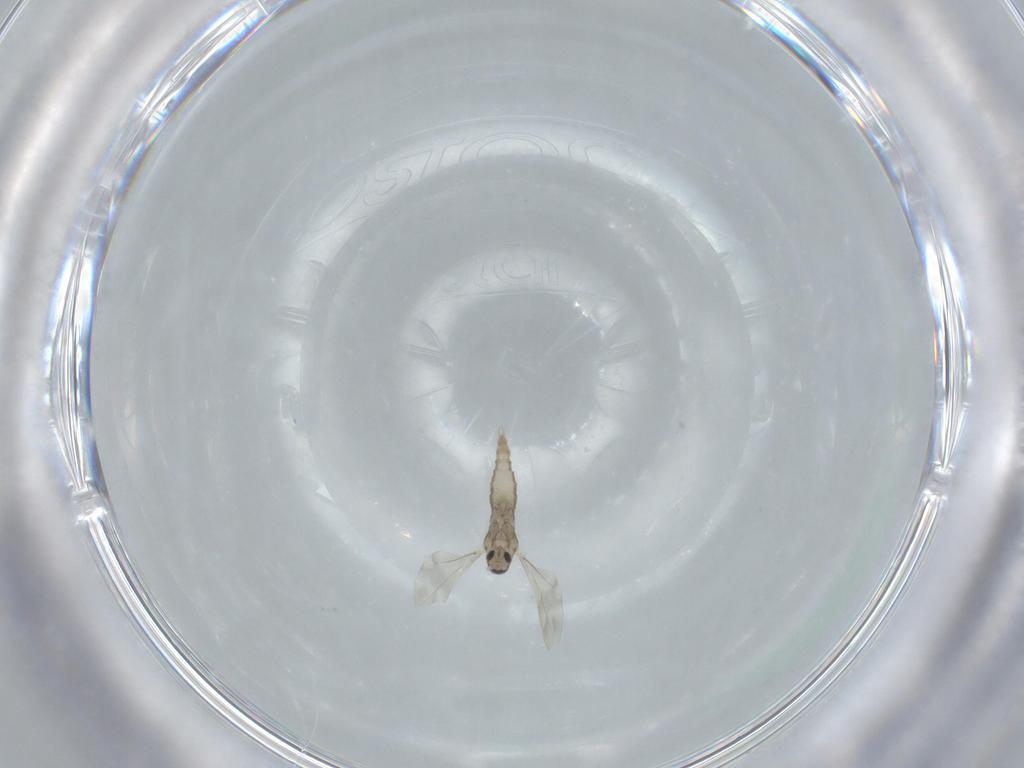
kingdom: Animalia
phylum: Arthropoda
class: Insecta
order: Diptera
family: Cecidomyiidae
